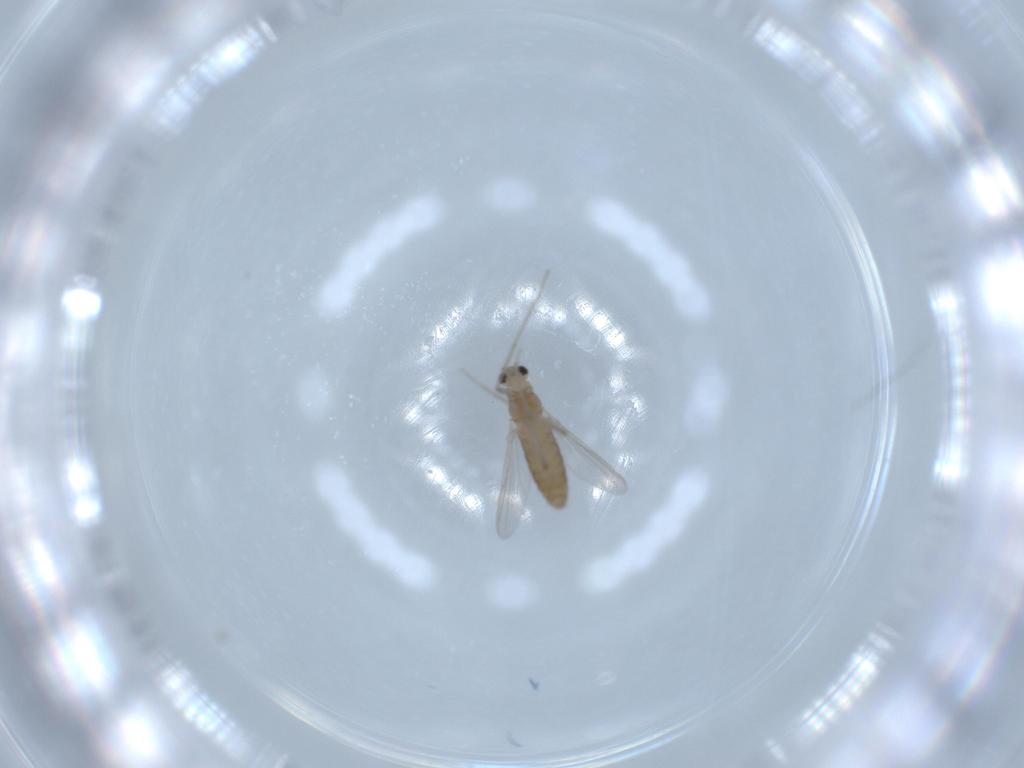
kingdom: Animalia
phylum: Arthropoda
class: Insecta
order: Diptera
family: Chironomidae
